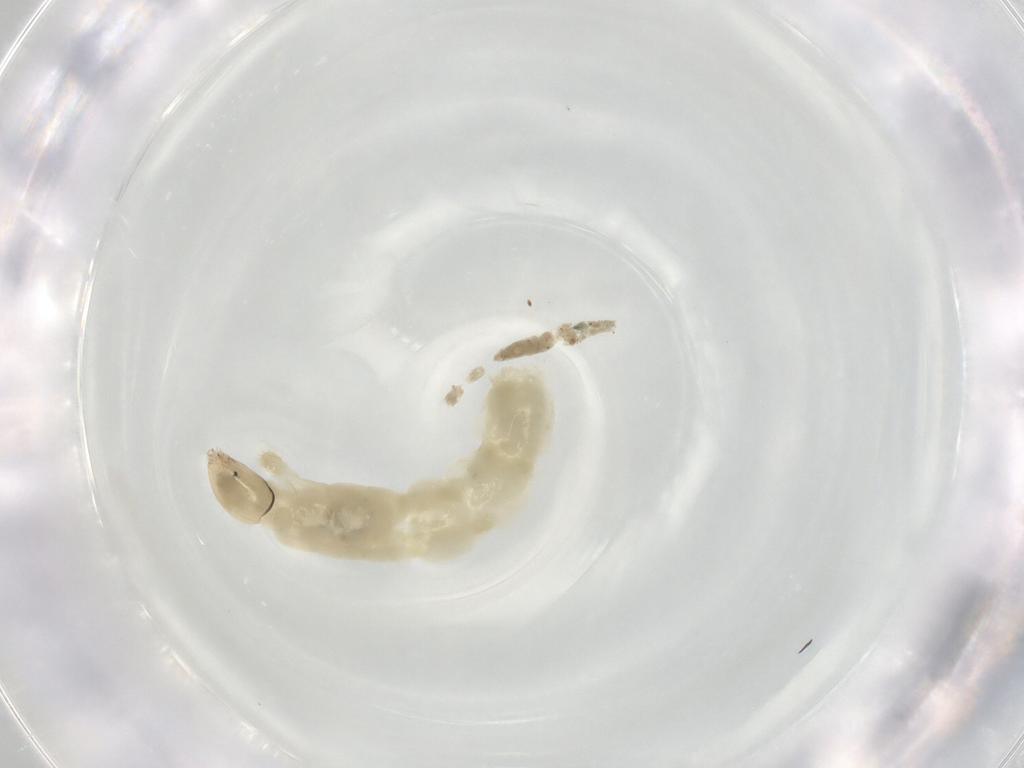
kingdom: Animalia
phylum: Arthropoda
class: Insecta
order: Diptera
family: Chironomidae
